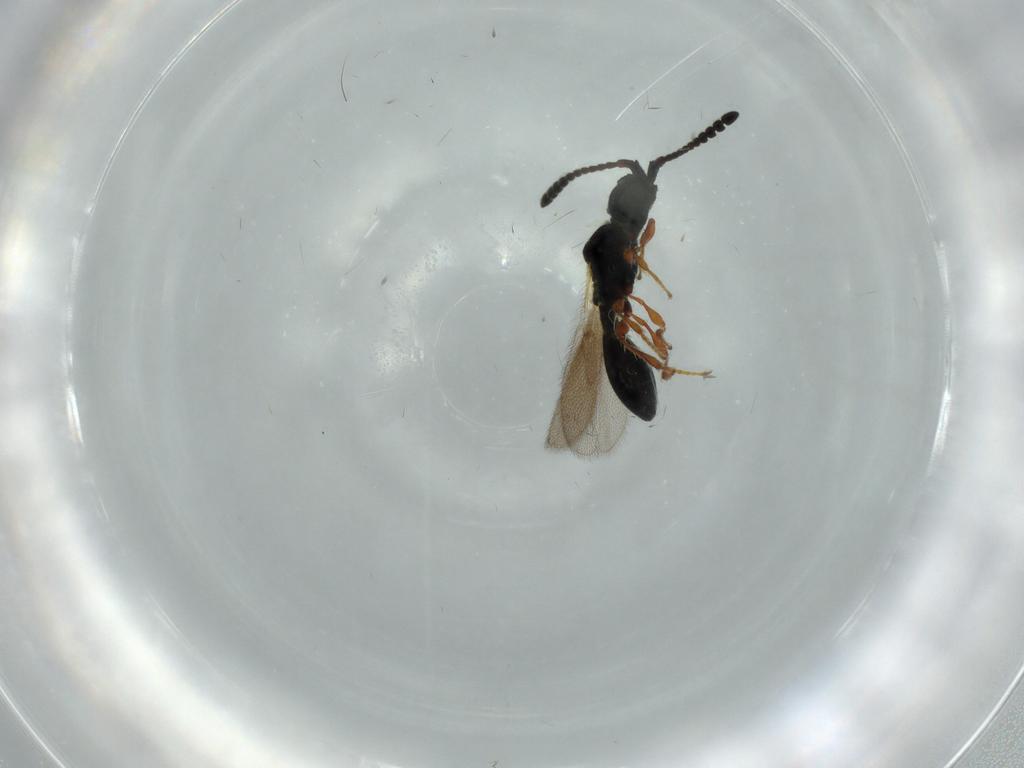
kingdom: Animalia
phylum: Arthropoda
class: Insecta
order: Hymenoptera
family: Diapriidae
